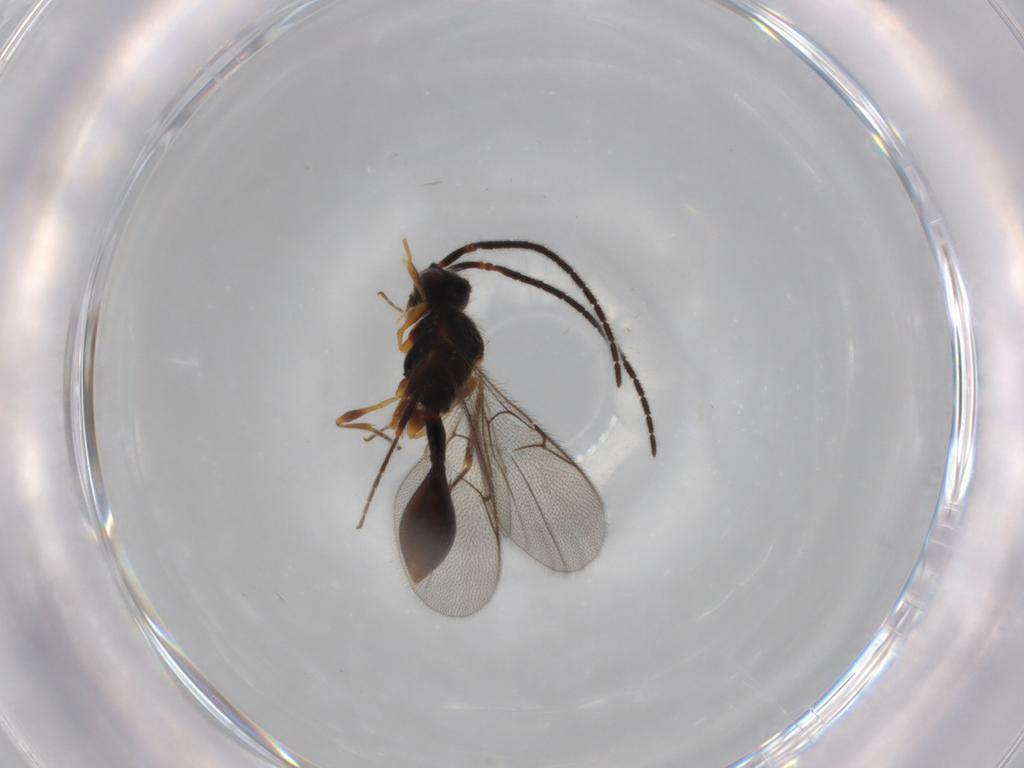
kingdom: Animalia
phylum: Arthropoda
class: Insecta
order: Hymenoptera
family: Diapriidae
